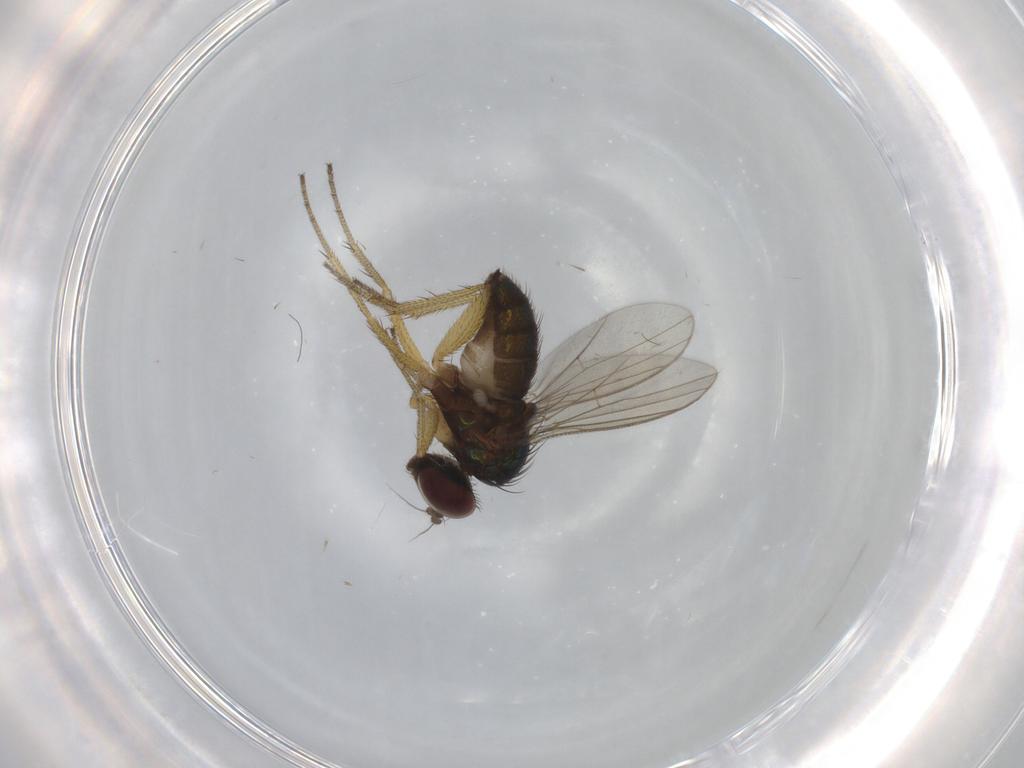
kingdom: Animalia
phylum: Arthropoda
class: Insecta
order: Diptera
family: Dolichopodidae
